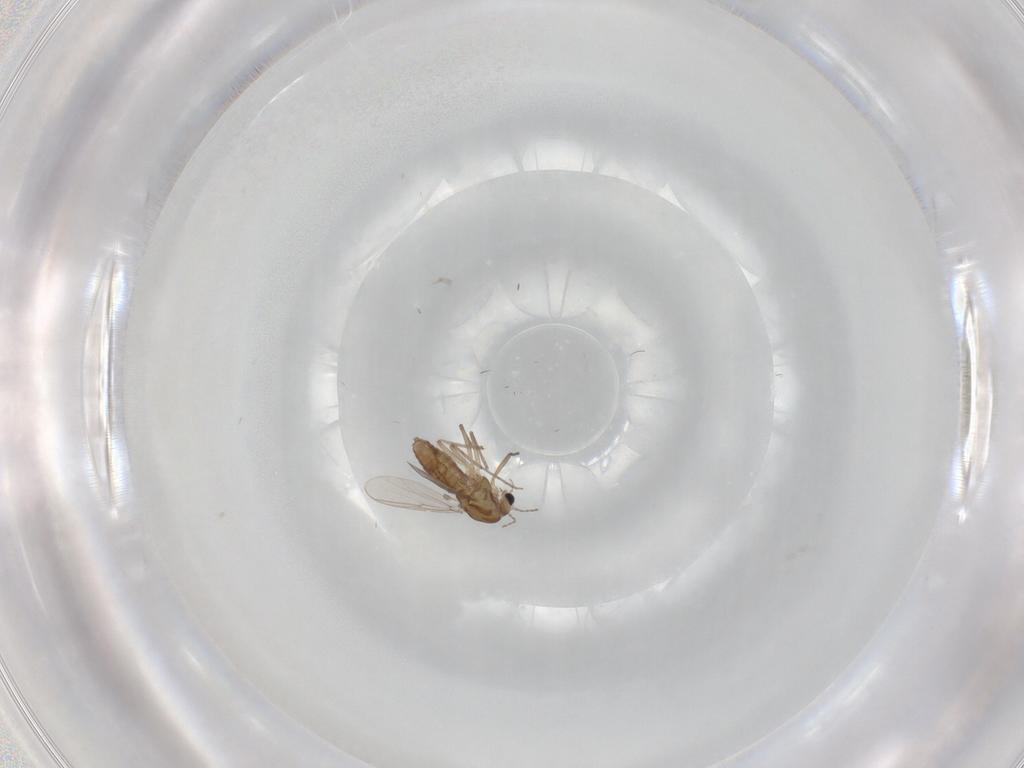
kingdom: Animalia
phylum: Arthropoda
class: Insecta
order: Diptera
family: Chironomidae
